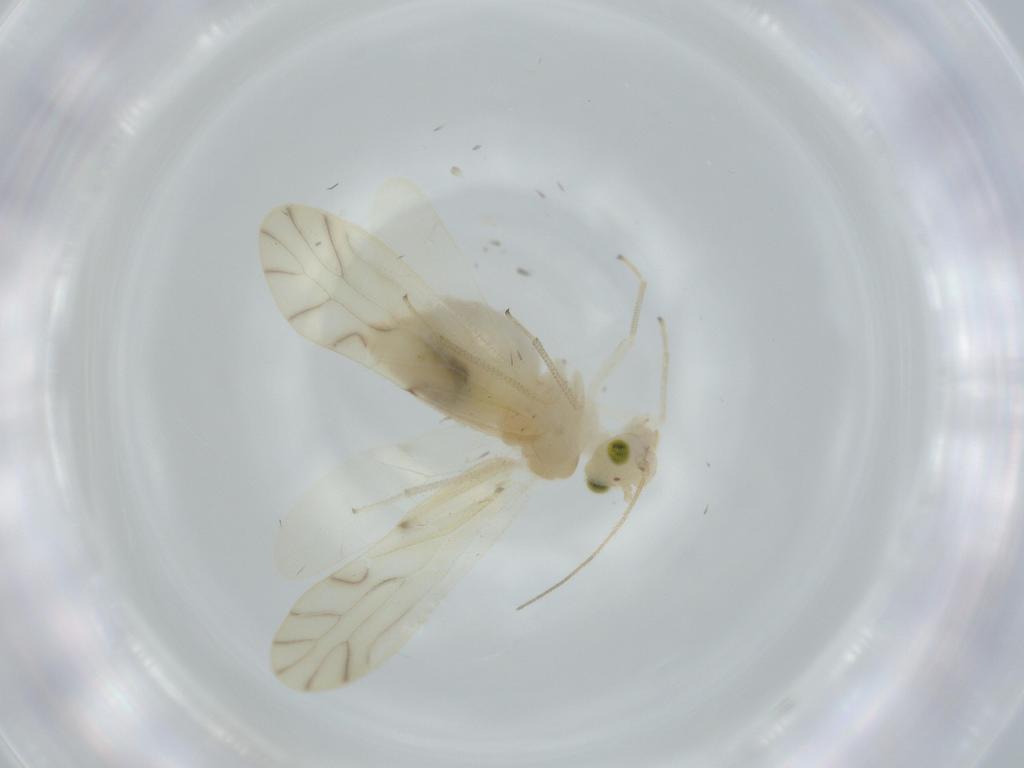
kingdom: Animalia
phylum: Arthropoda
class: Insecta
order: Psocodea
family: Caeciliusidae
